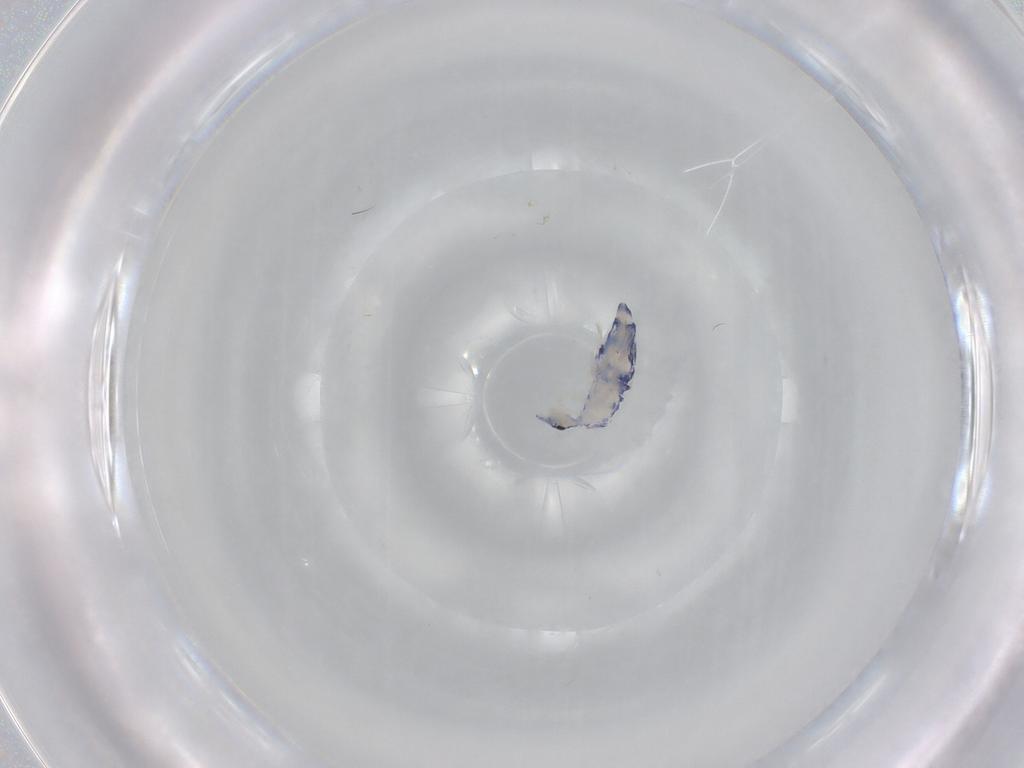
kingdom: Animalia
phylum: Arthropoda
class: Collembola
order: Entomobryomorpha
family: Entomobryidae
